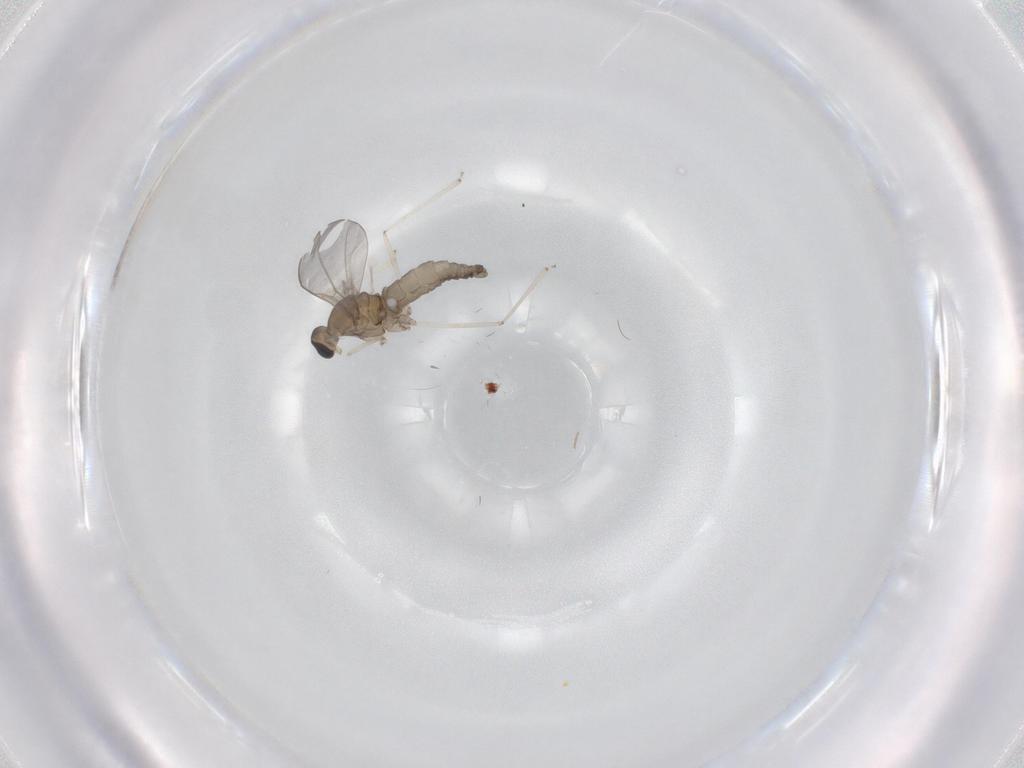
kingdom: Animalia
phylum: Arthropoda
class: Insecta
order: Diptera
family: Cecidomyiidae
